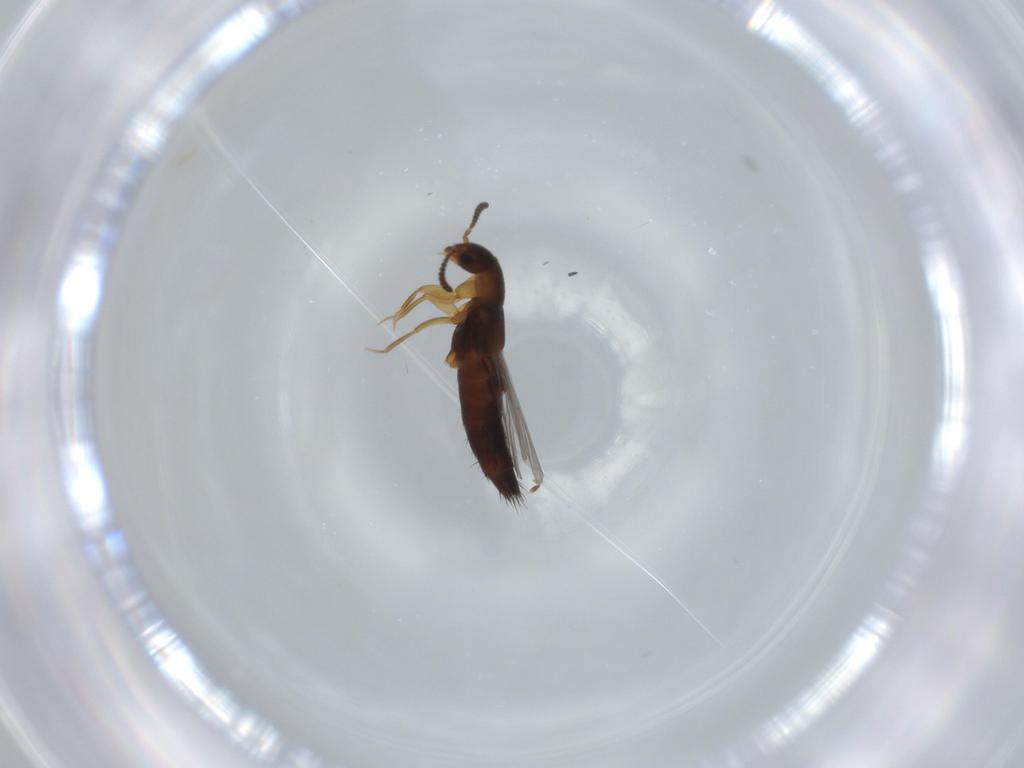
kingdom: Animalia
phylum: Arthropoda
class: Insecta
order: Coleoptera
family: Staphylinidae
